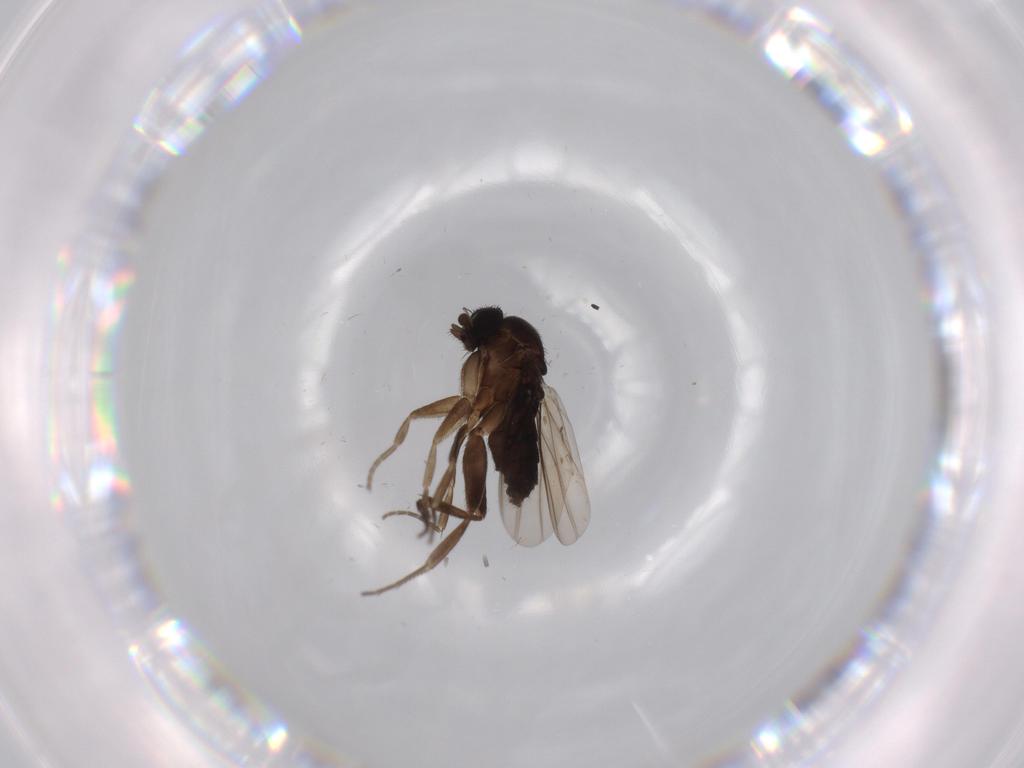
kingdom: Animalia
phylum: Arthropoda
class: Insecta
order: Diptera
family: Phoridae
